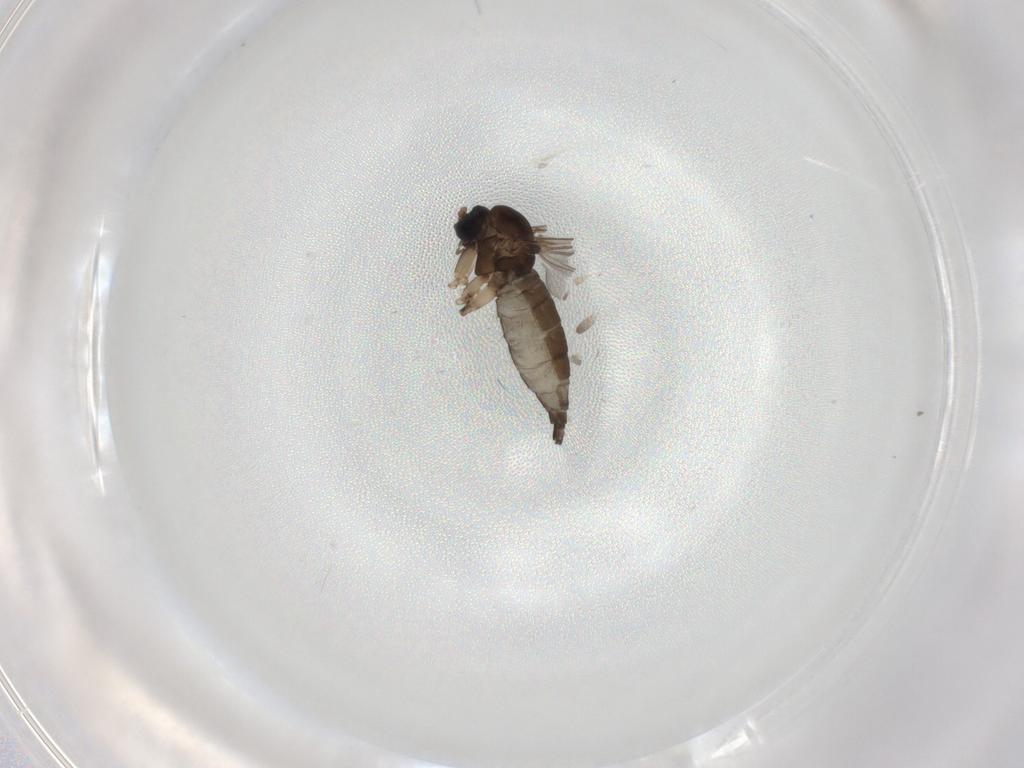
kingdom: Animalia
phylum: Arthropoda
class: Insecta
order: Diptera
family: Sciaridae
